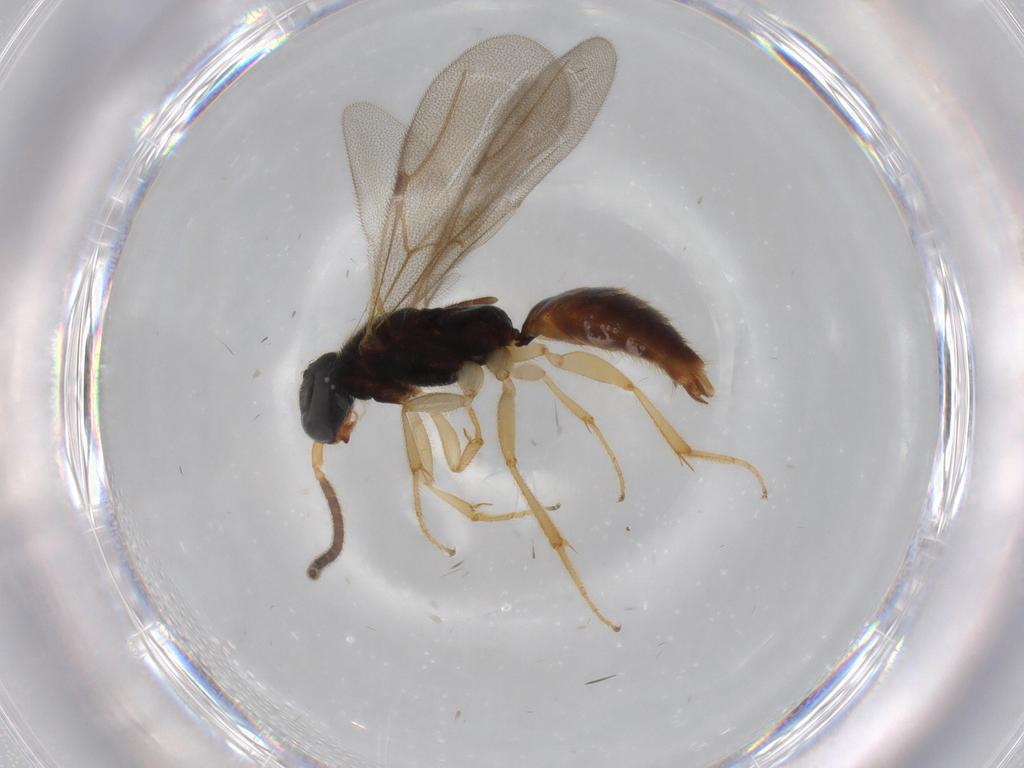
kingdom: Animalia
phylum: Arthropoda
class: Insecta
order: Hymenoptera
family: Bethylidae
